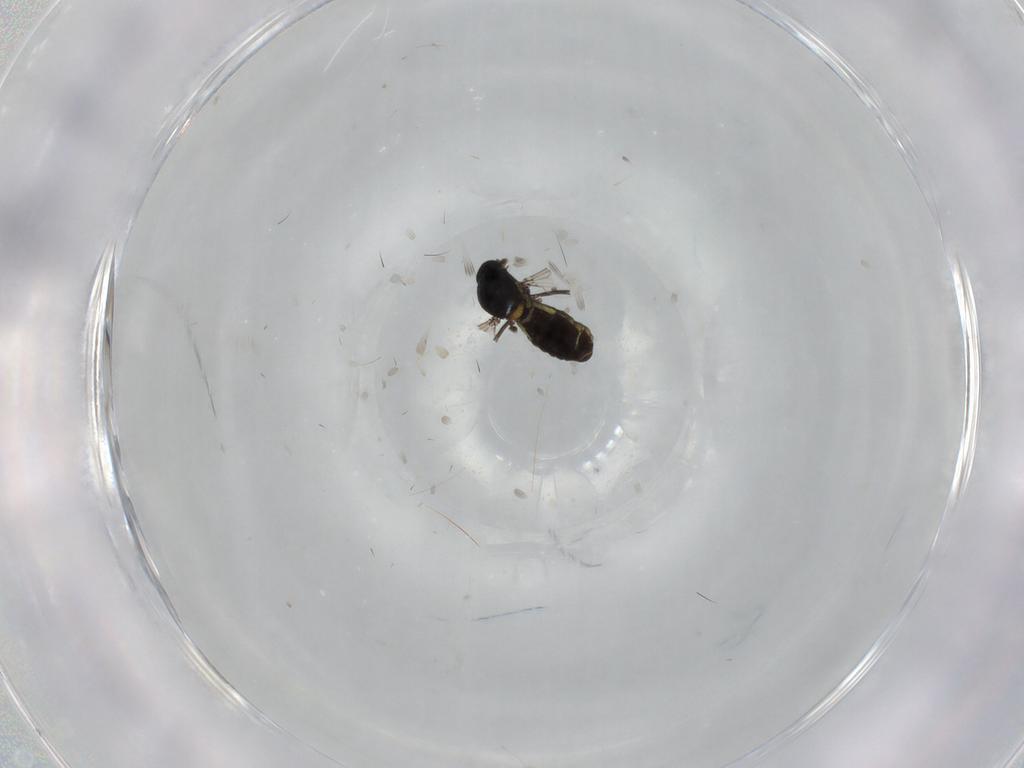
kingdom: Animalia
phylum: Arthropoda
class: Insecta
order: Diptera
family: Ceratopogonidae
